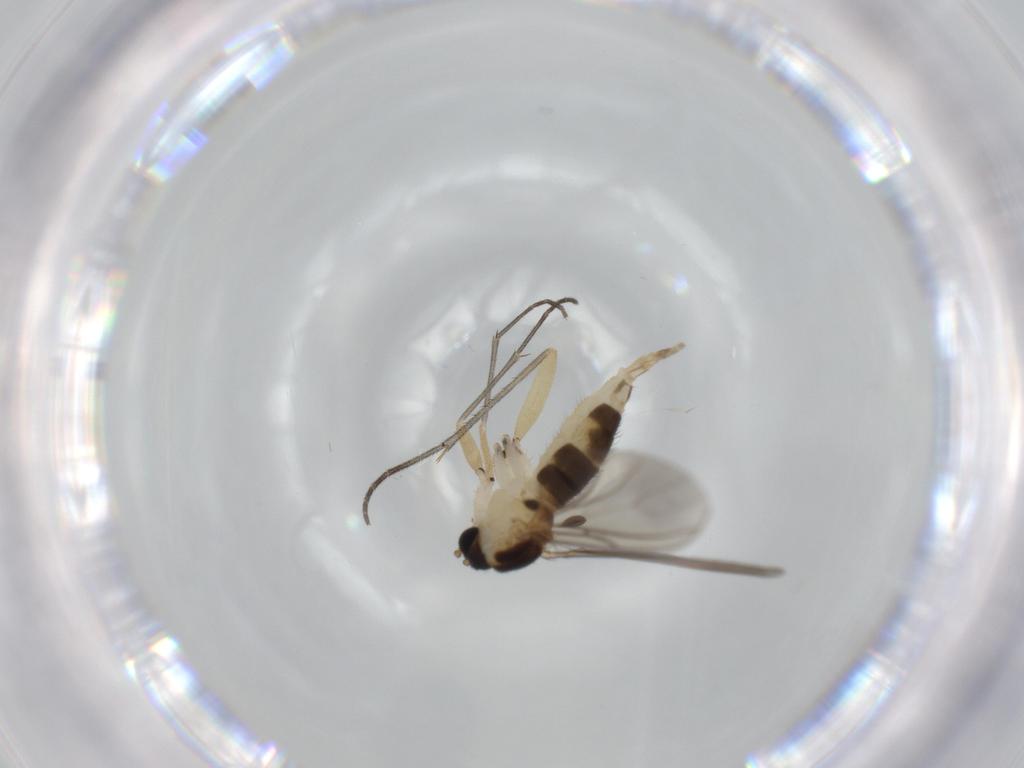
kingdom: Animalia
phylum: Arthropoda
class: Insecta
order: Diptera
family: Sciaridae
